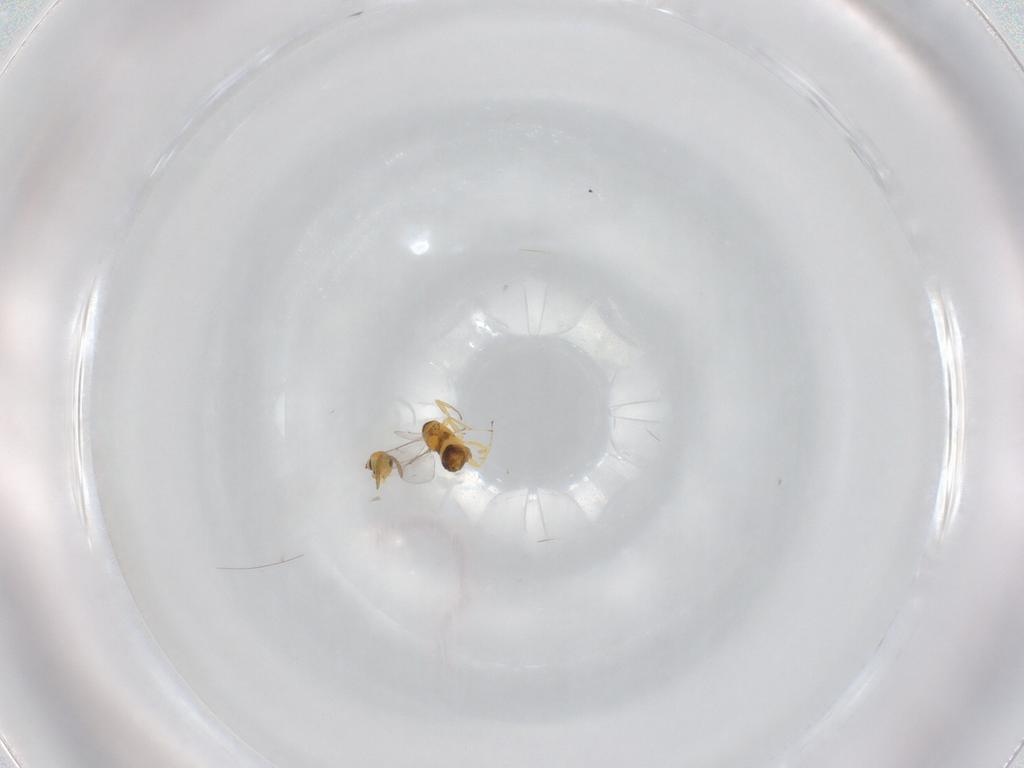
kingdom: Animalia
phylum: Arthropoda
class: Insecta
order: Hymenoptera
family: Aphelinidae
